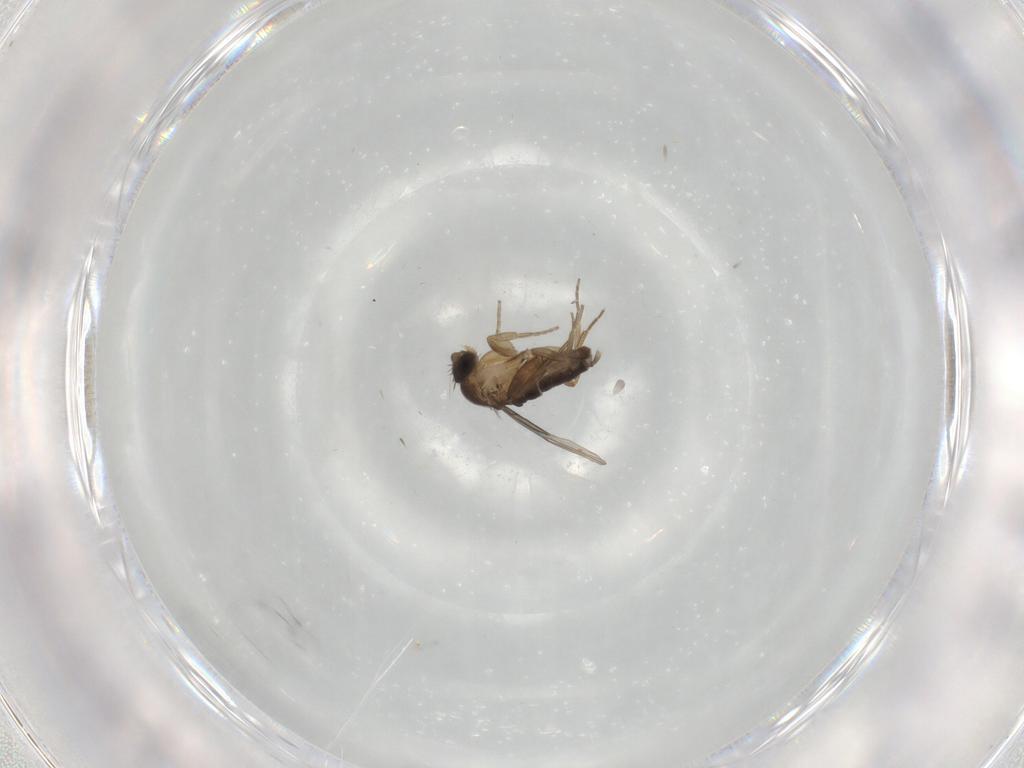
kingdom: Animalia
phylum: Arthropoda
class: Insecta
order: Diptera
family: Phoridae
